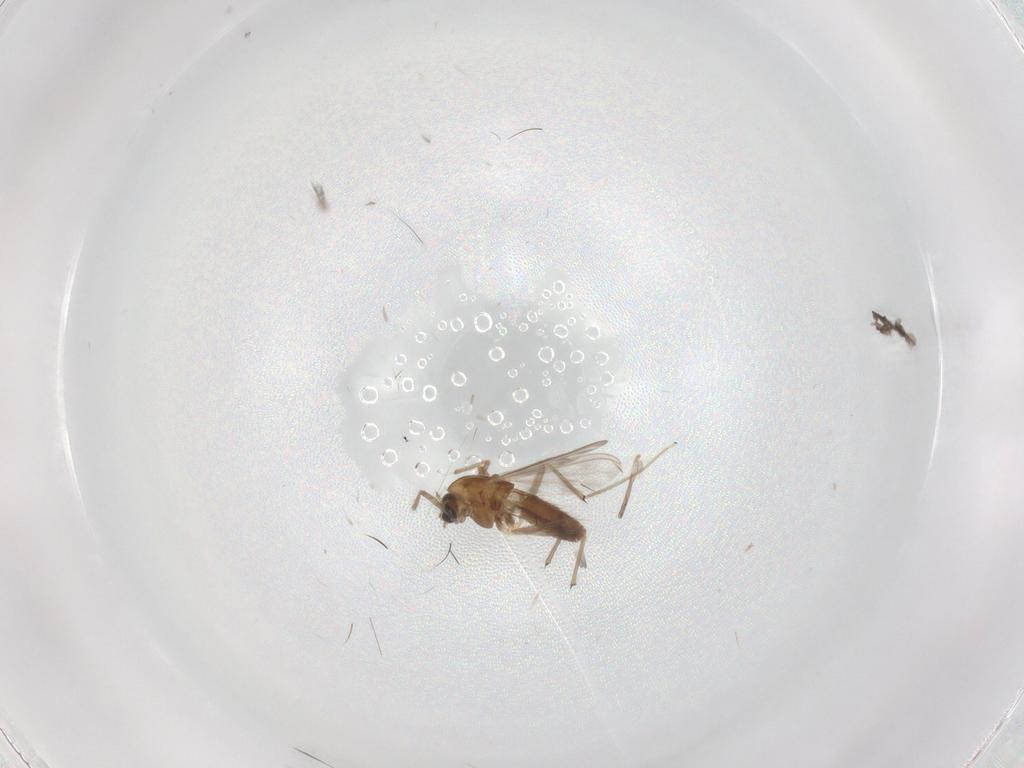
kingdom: Animalia
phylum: Arthropoda
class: Insecta
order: Diptera
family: Chironomidae
